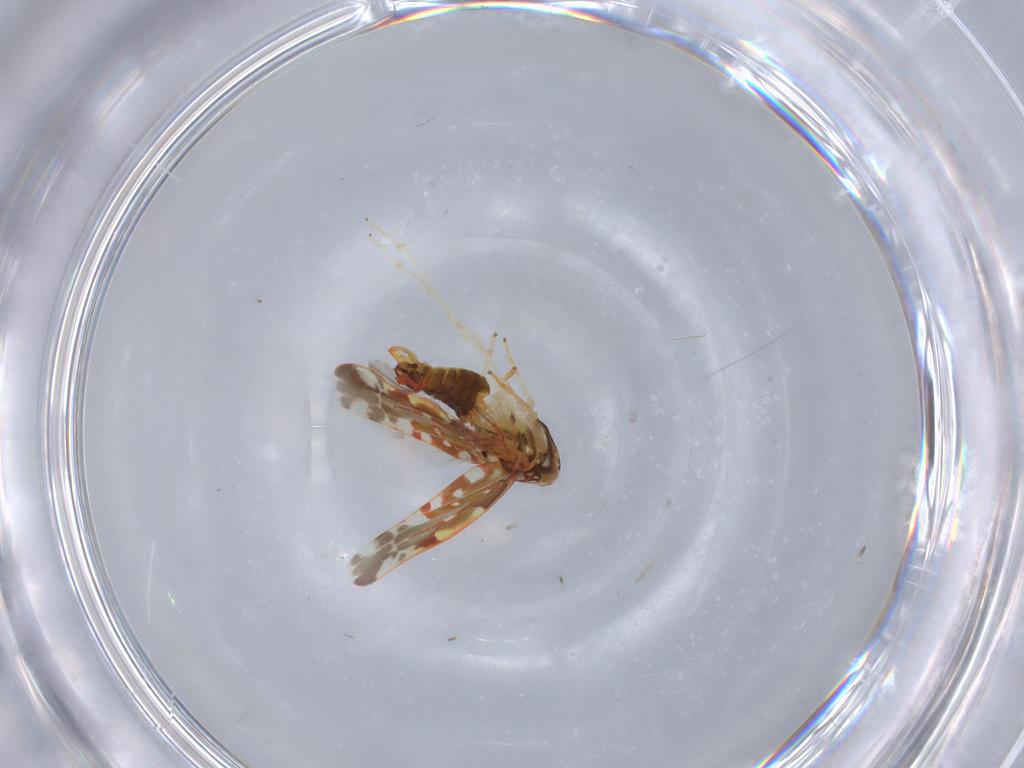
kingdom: Animalia
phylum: Arthropoda
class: Insecta
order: Hemiptera
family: Cicadellidae
